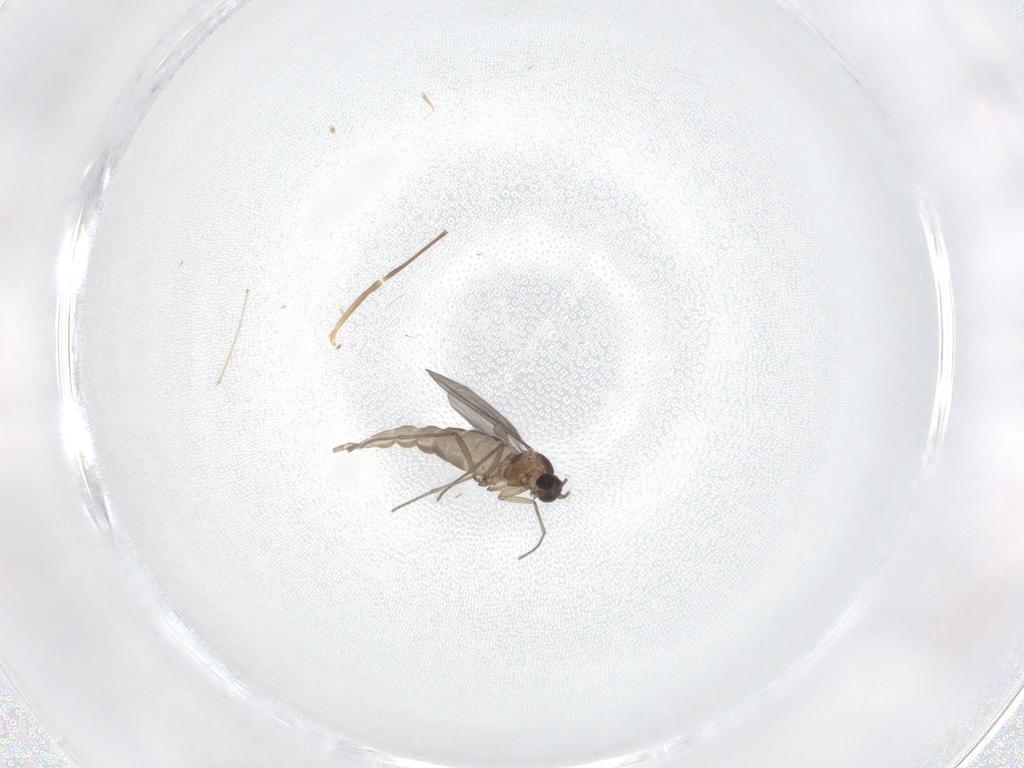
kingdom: Animalia
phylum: Arthropoda
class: Insecta
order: Diptera
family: Sciaridae
